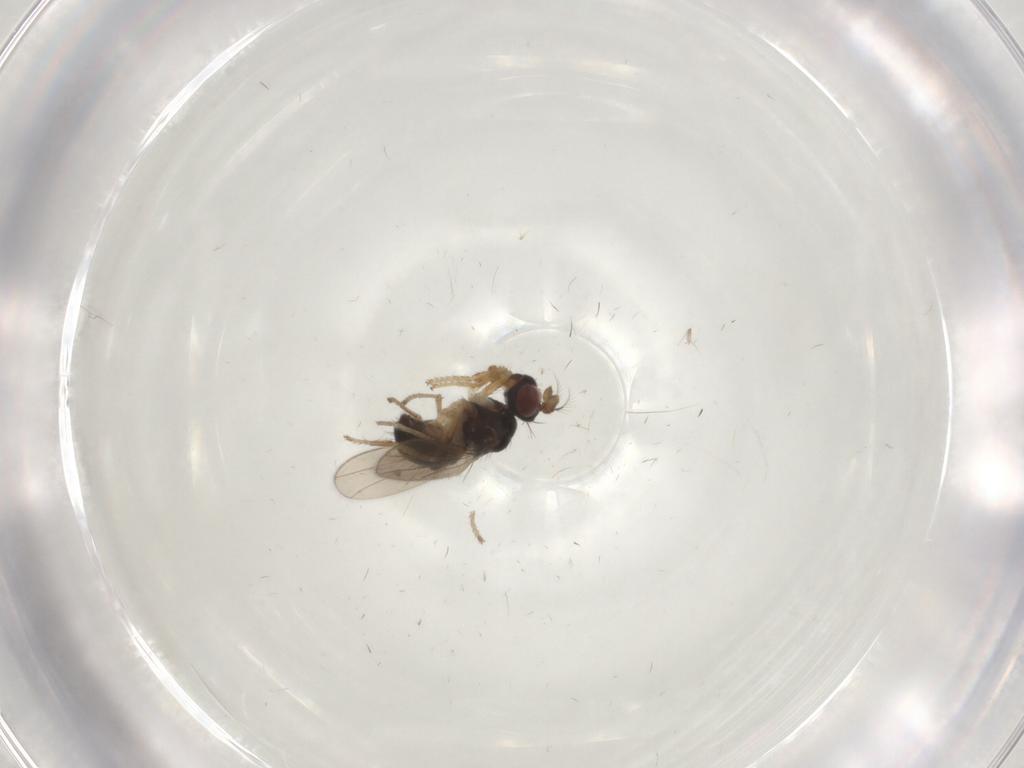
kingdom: Animalia
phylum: Arthropoda
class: Insecta
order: Diptera
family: Ephydridae
